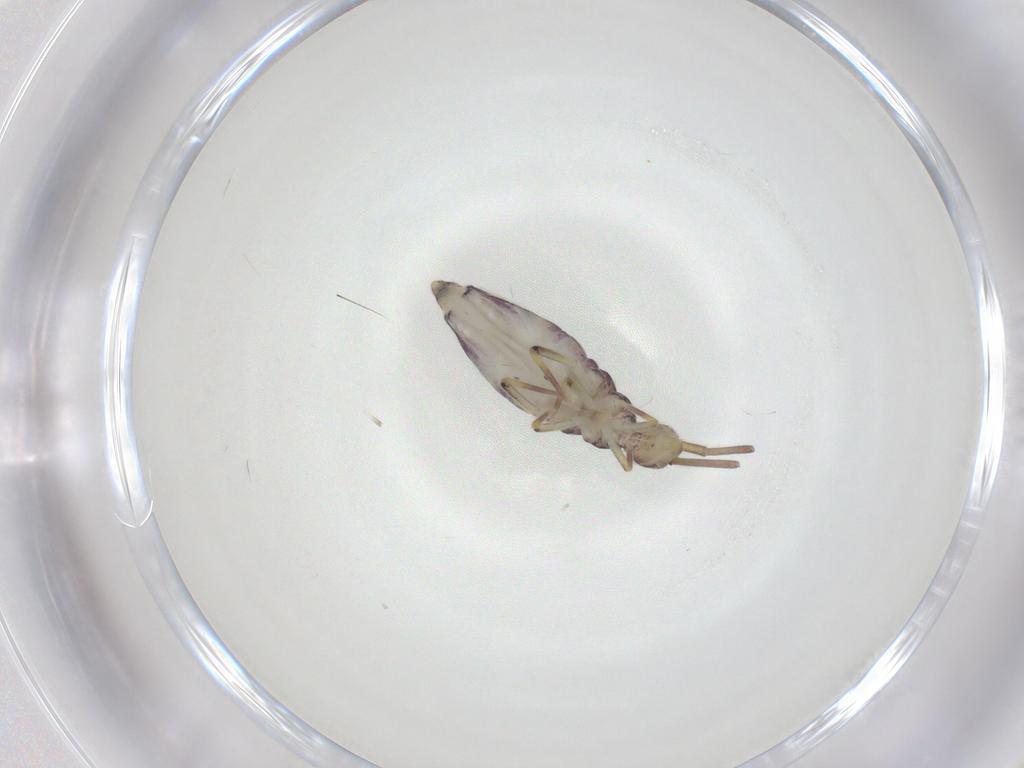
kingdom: Animalia
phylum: Arthropoda
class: Collembola
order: Entomobryomorpha
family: Entomobryidae
